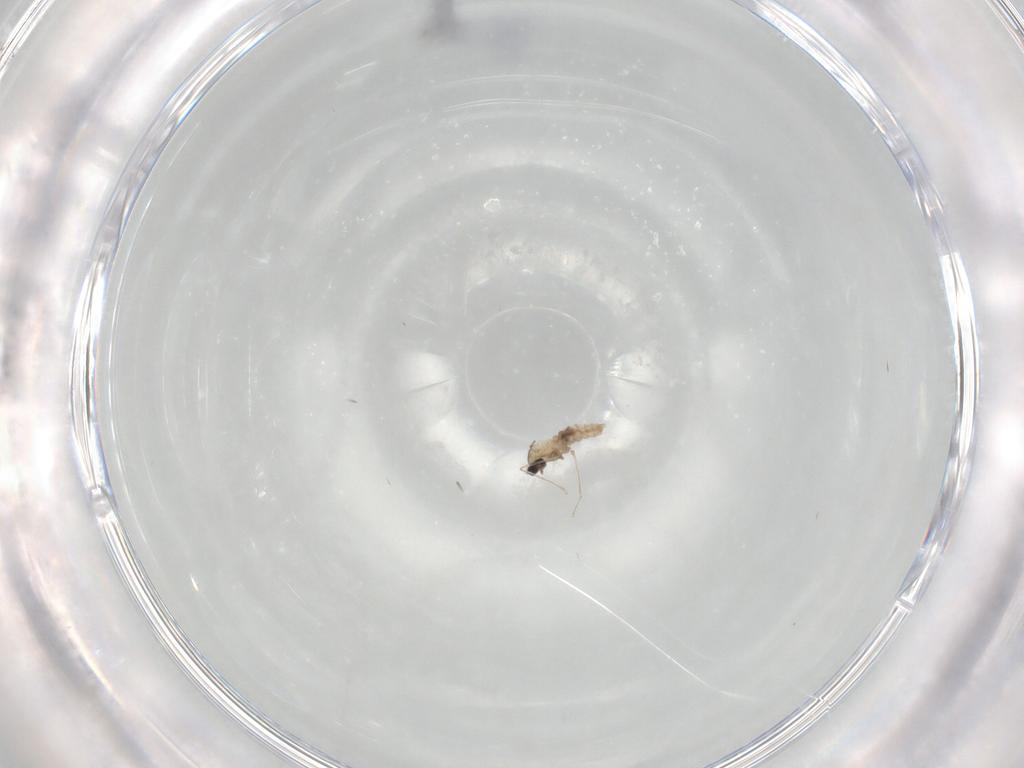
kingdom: Animalia
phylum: Arthropoda
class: Insecta
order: Diptera
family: Cecidomyiidae
